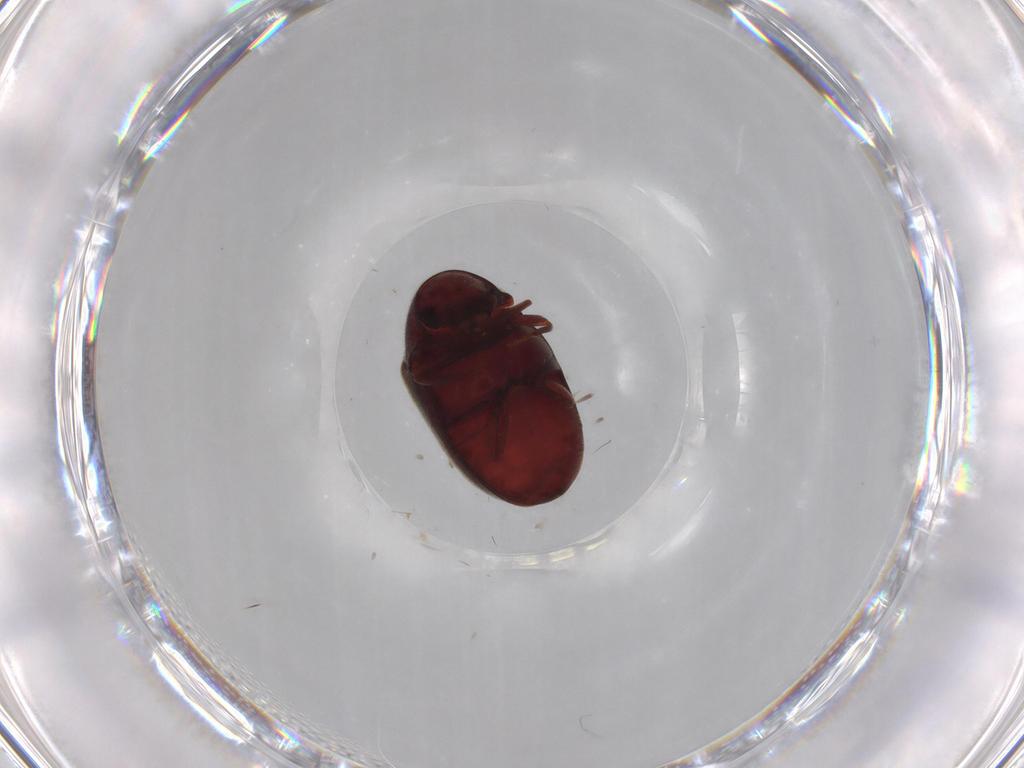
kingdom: Animalia
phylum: Arthropoda
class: Insecta
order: Coleoptera
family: Ptinidae
